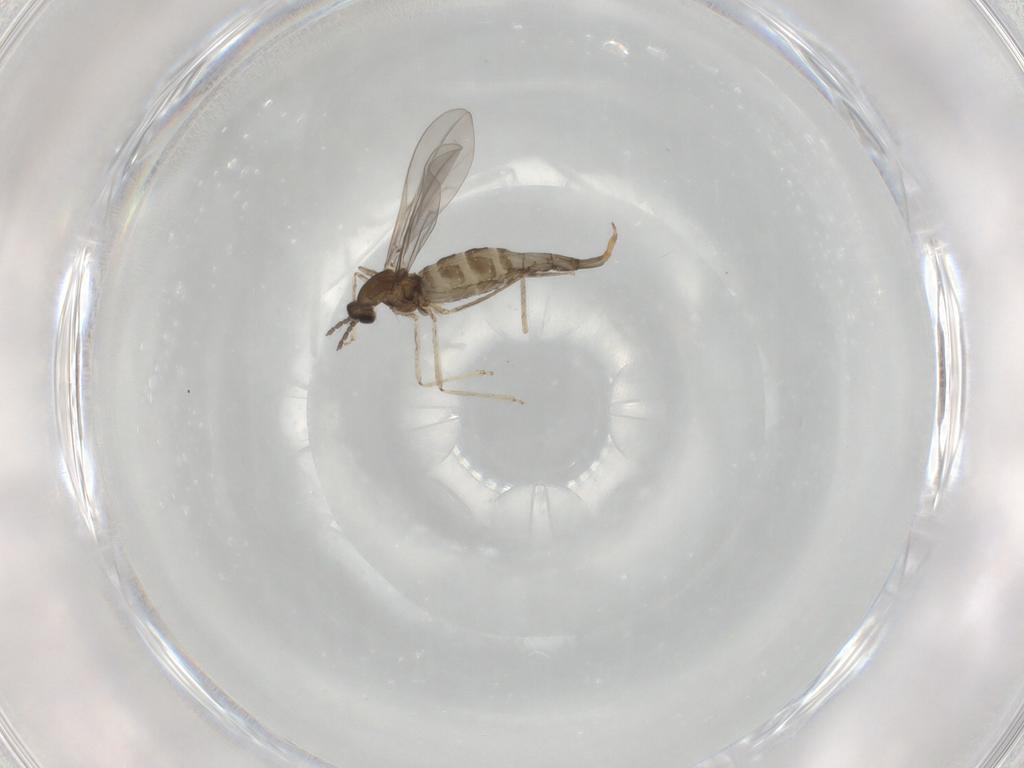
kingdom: Animalia
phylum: Arthropoda
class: Insecta
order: Diptera
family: Cecidomyiidae
